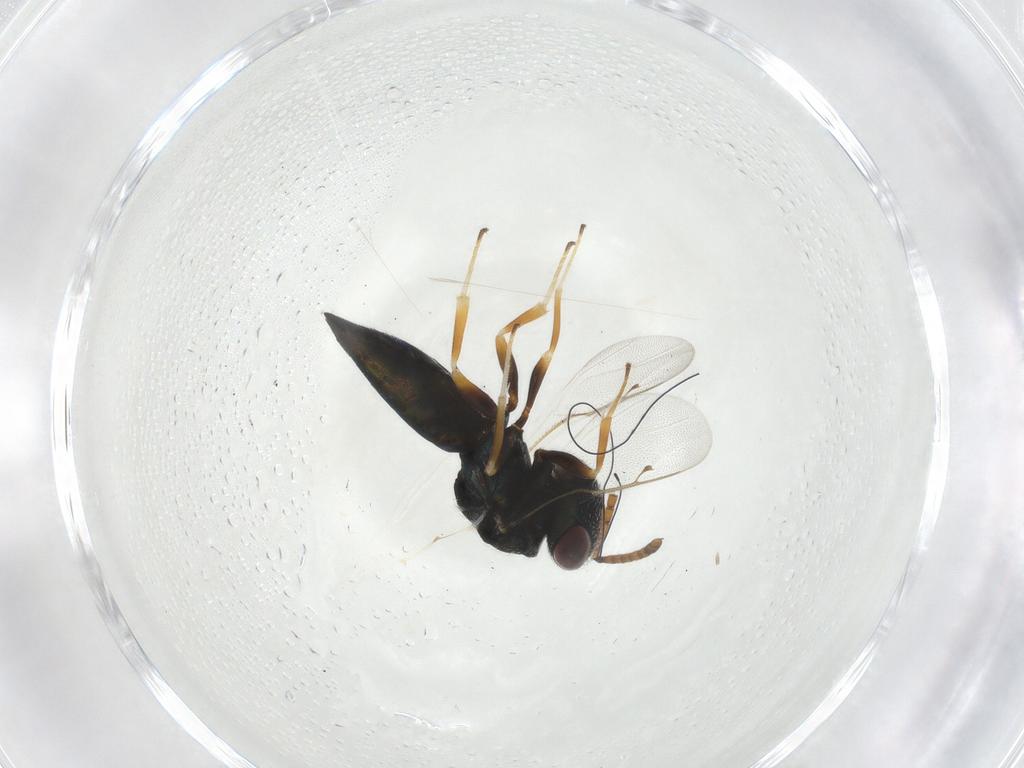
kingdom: Animalia
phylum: Arthropoda
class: Insecta
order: Hymenoptera
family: Pteromalidae
